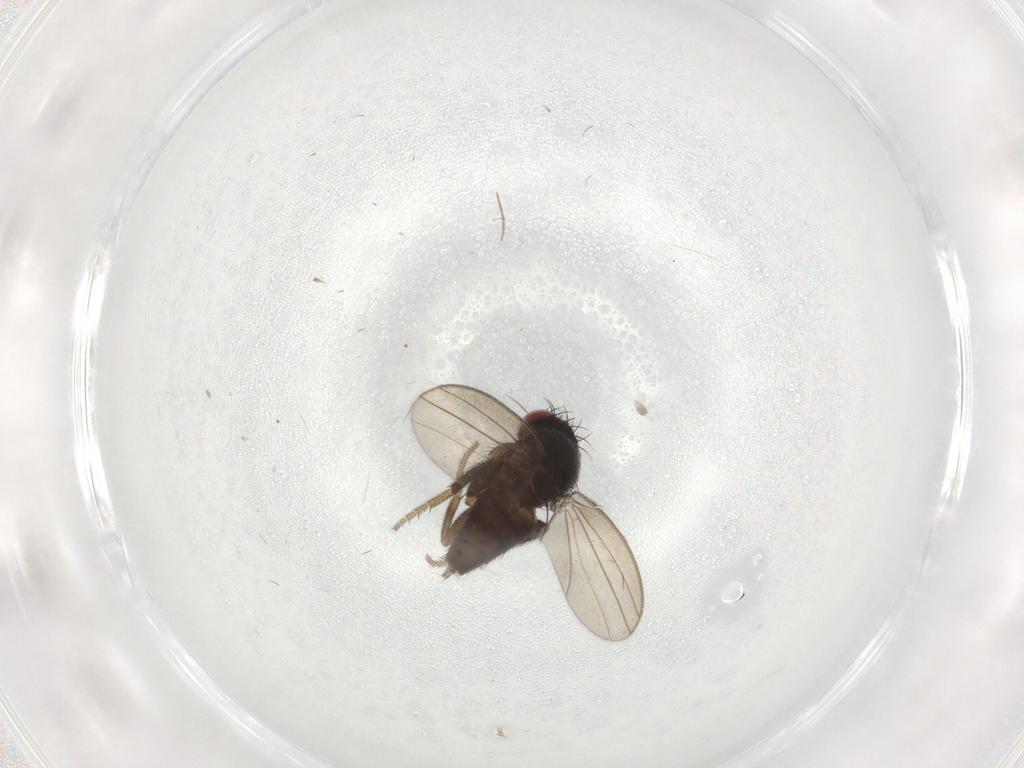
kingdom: Animalia
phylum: Arthropoda
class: Insecta
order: Diptera
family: Milichiidae
